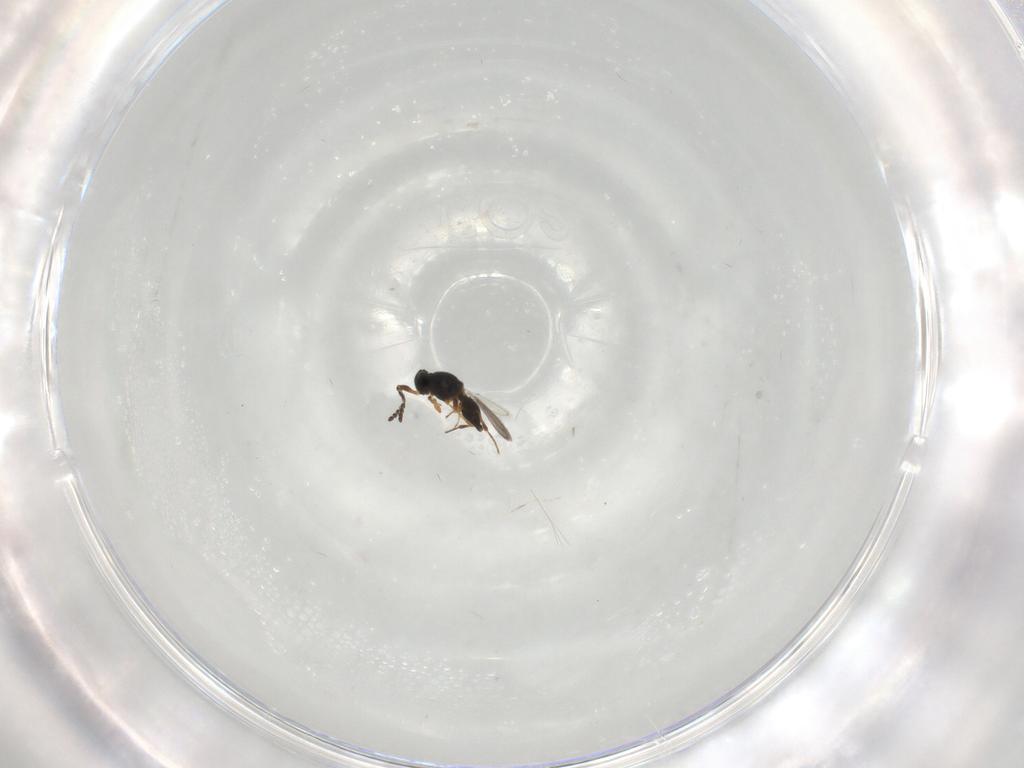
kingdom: Animalia
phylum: Arthropoda
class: Insecta
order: Hymenoptera
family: Platygastridae
